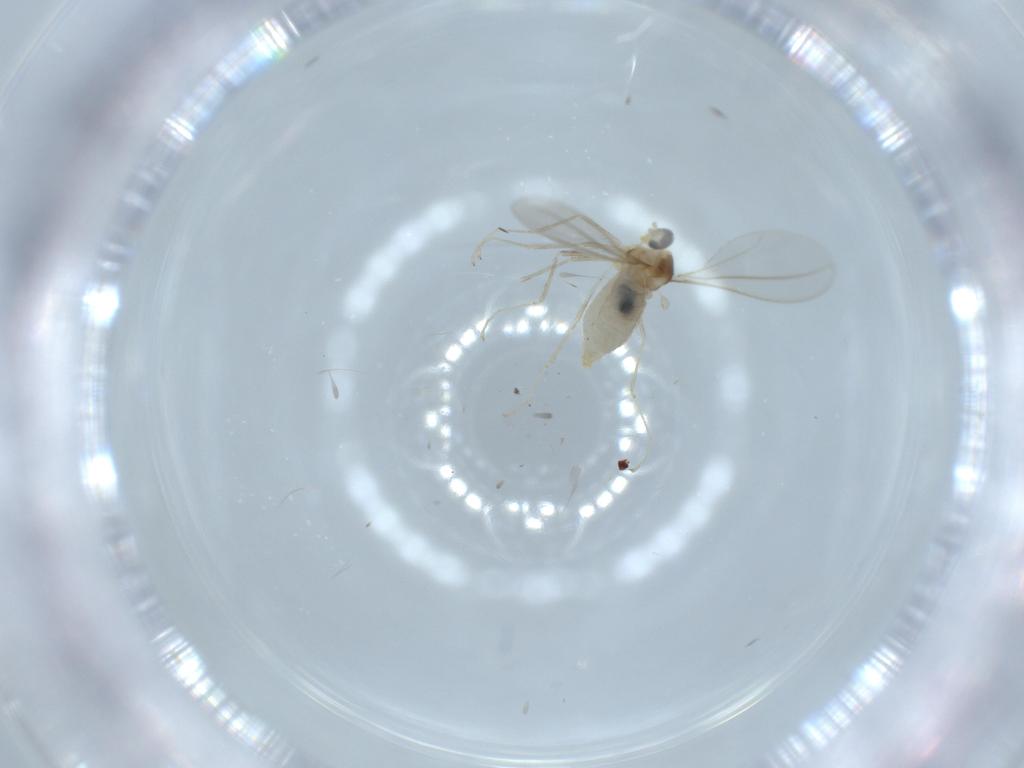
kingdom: Animalia
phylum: Arthropoda
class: Insecta
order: Diptera
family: Cecidomyiidae
